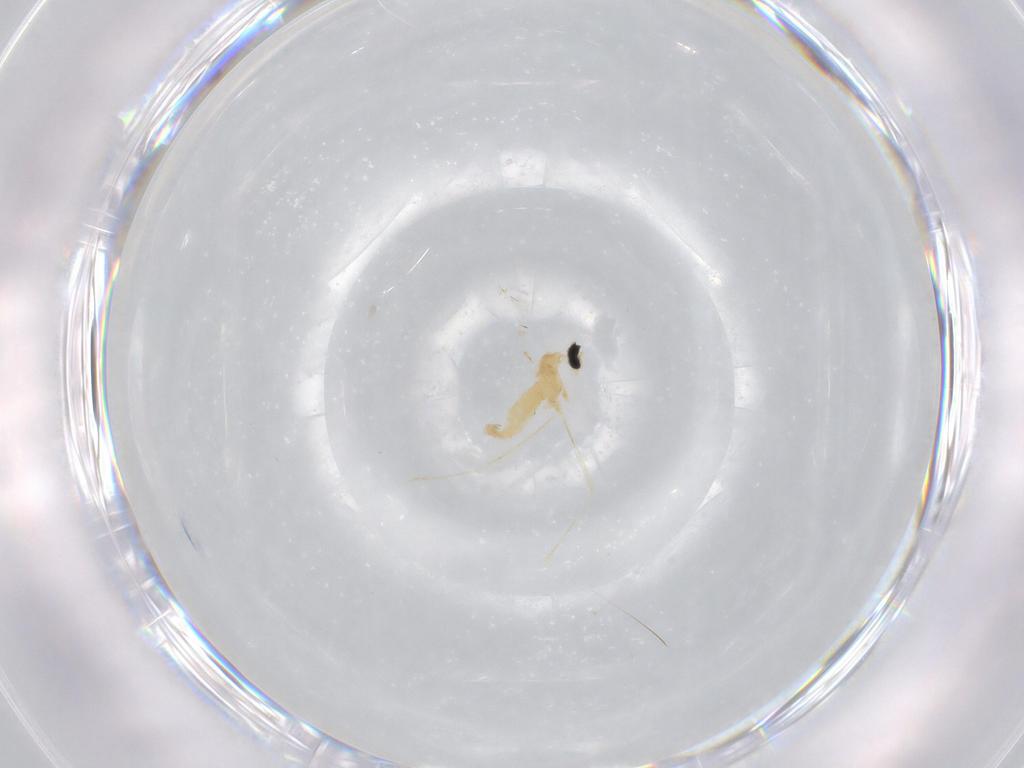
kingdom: Animalia
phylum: Arthropoda
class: Insecta
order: Diptera
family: Cecidomyiidae
